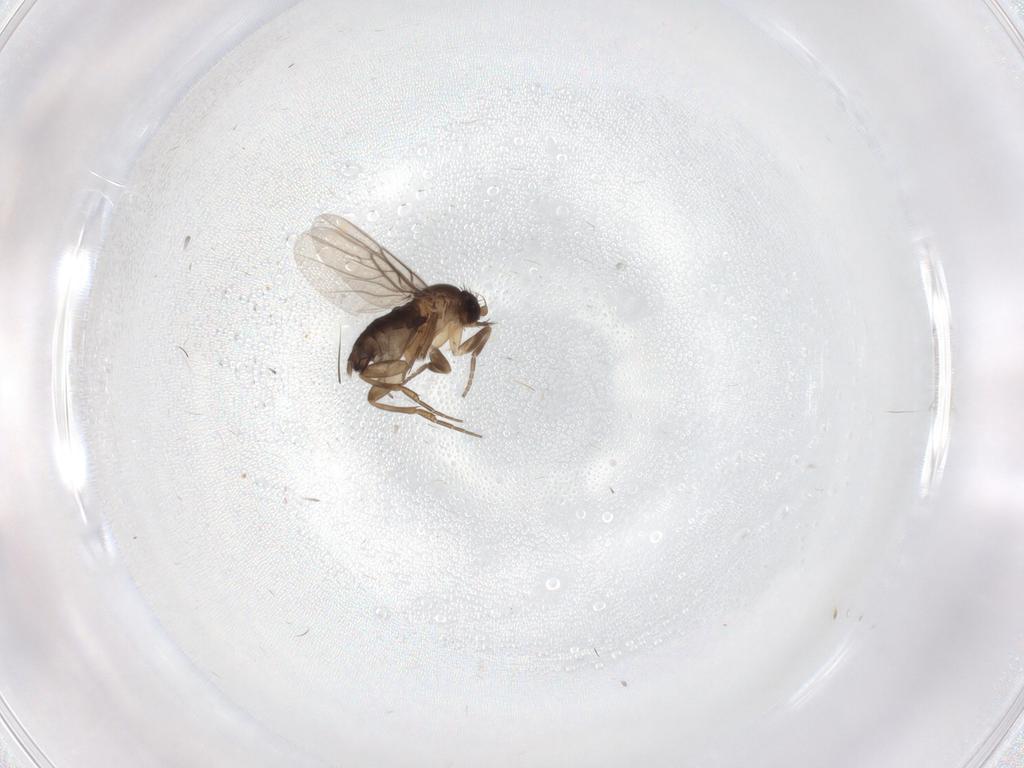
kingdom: Animalia
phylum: Arthropoda
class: Insecta
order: Diptera
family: Phoridae
